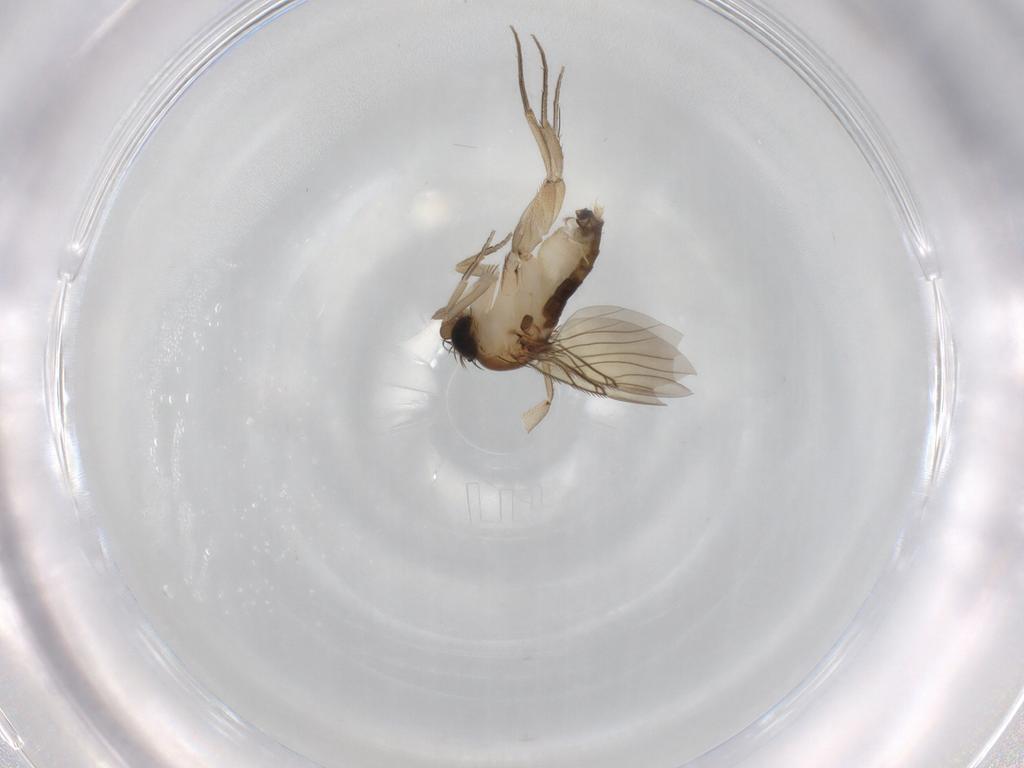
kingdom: Animalia
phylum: Arthropoda
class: Insecta
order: Diptera
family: Phoridae
